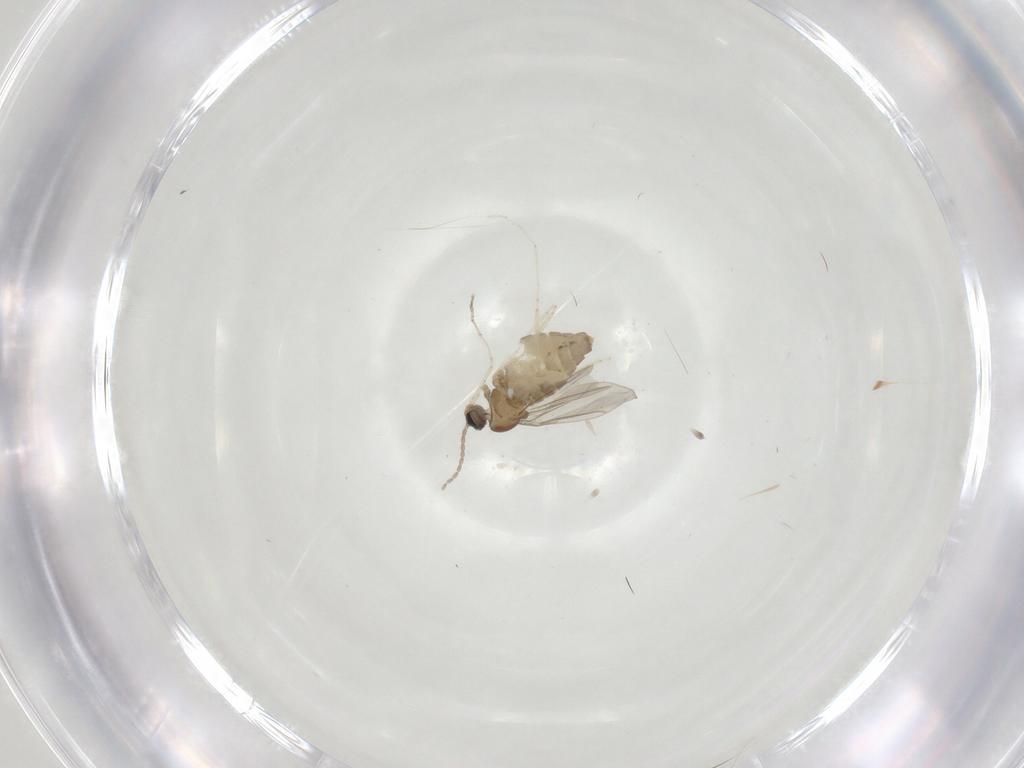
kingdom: Animalia
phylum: Arthropoda
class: Insecta
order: Diptera
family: Cecidomyiidae
